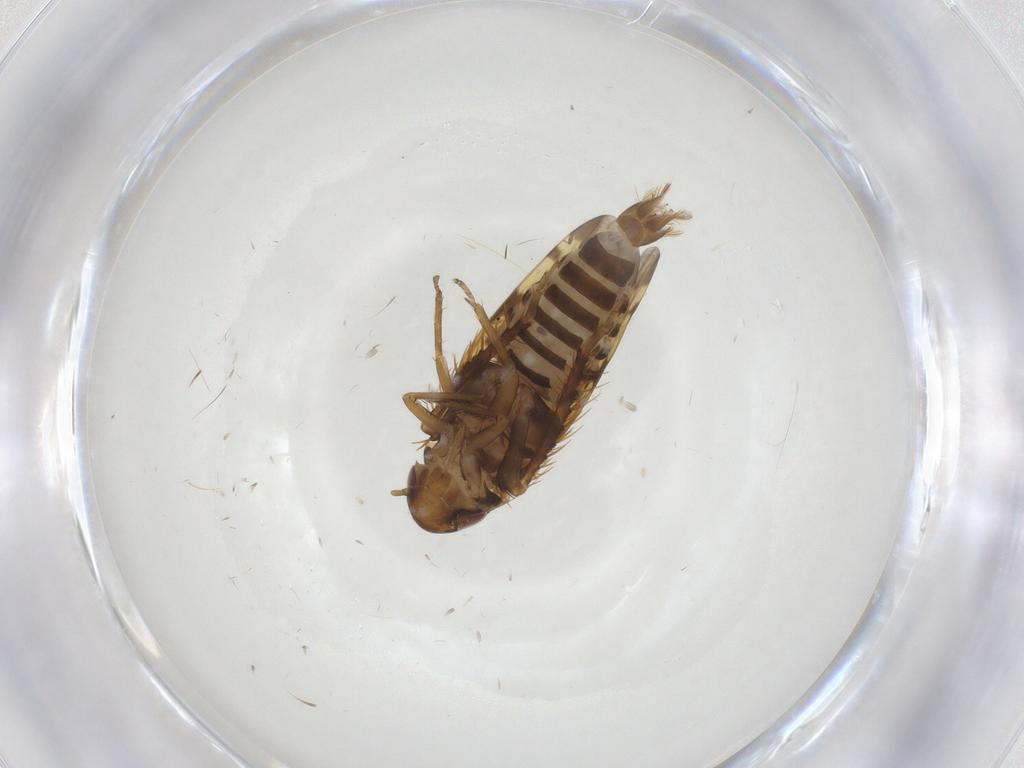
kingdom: Animalia
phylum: Arthropoda
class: Insecta
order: Hemiptera
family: Cicadellidae
